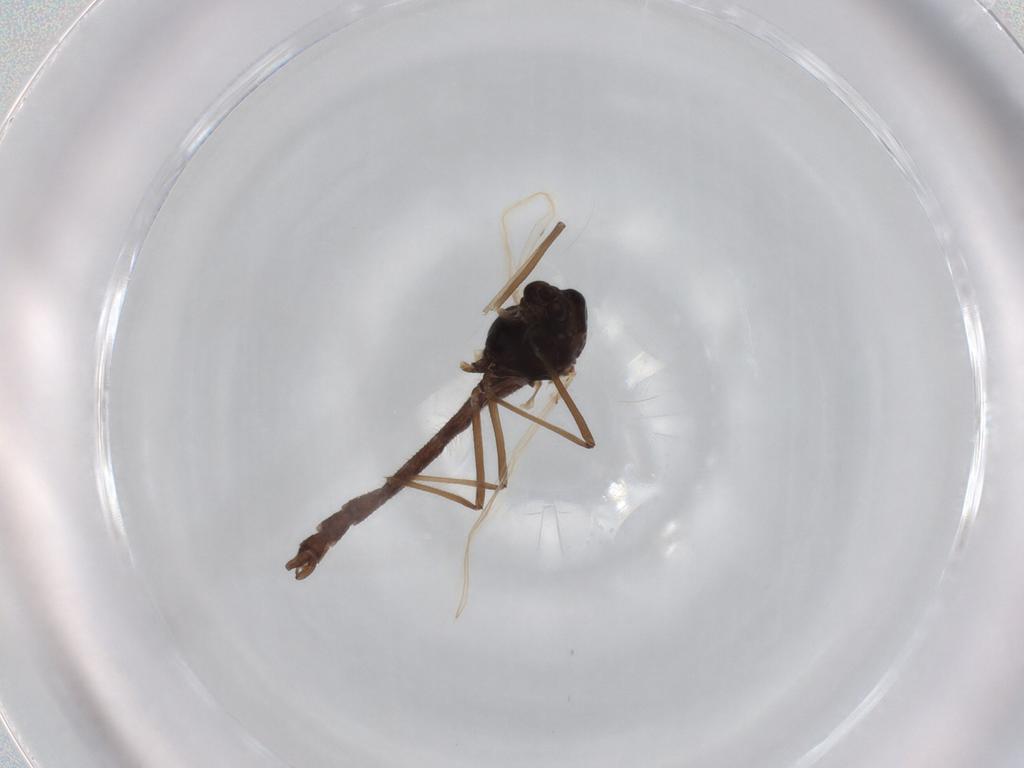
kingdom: Animalia
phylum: Arthropoda
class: Insecta
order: Diptera
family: Chironomidae
